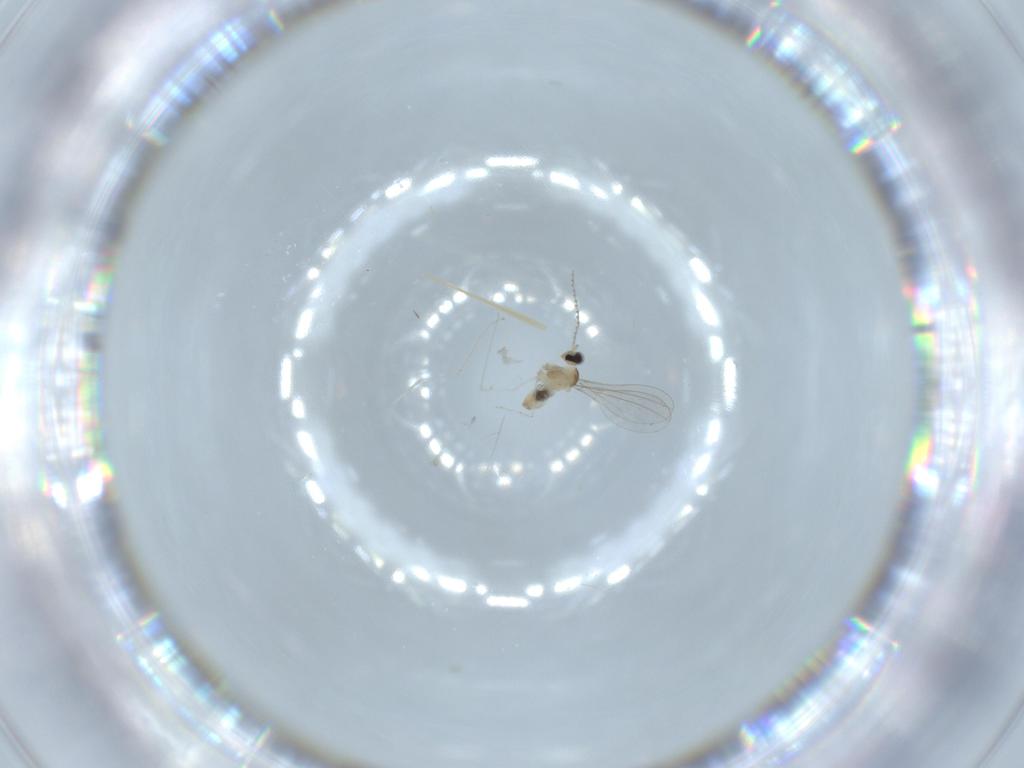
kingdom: Animalia
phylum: Arthropoda
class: Insecta
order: Diptera
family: Cecidomyiidae
